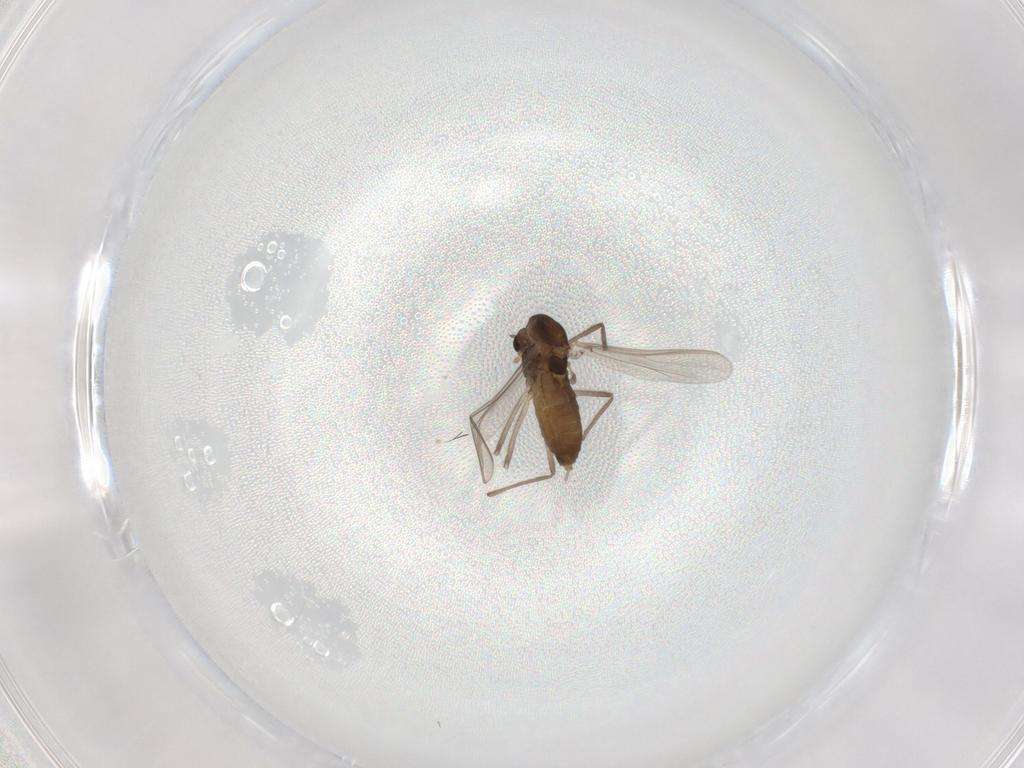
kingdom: Animalia
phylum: Arthropoda
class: Insecta
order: Diptera
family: Chironomidae
